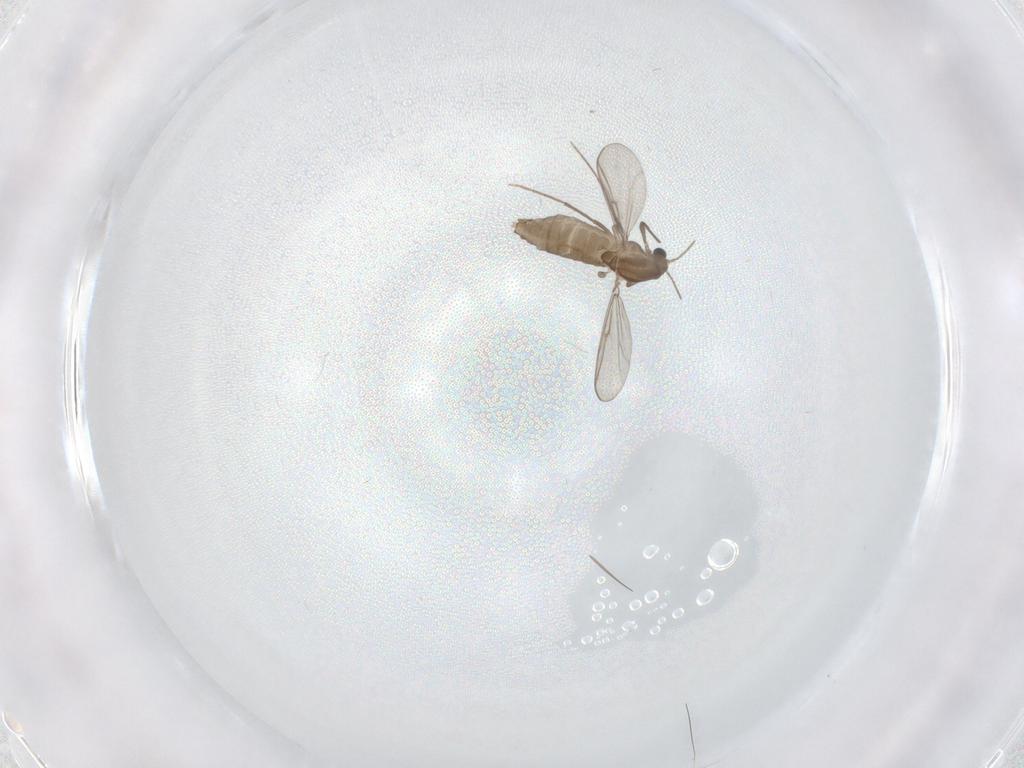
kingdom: Animalia
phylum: Arthropoda
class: Insecta
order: Diptera
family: Chironomidae
